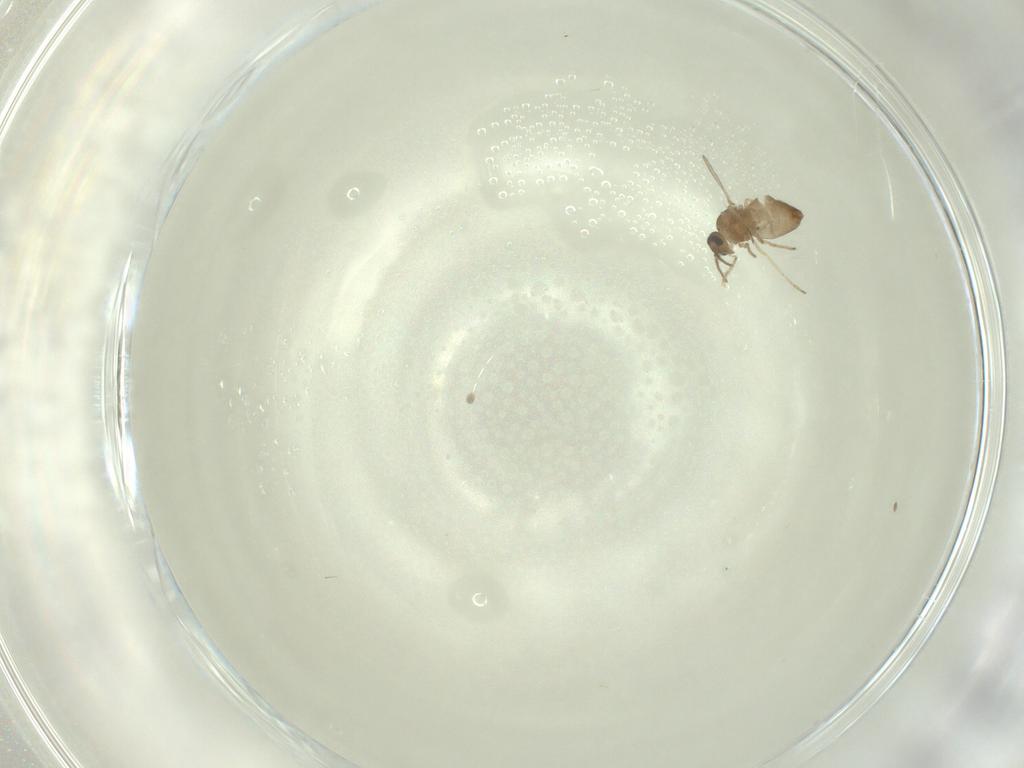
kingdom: Animalia
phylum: Arthropoda
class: Insecta
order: Diptera
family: Ceratopogonidae
